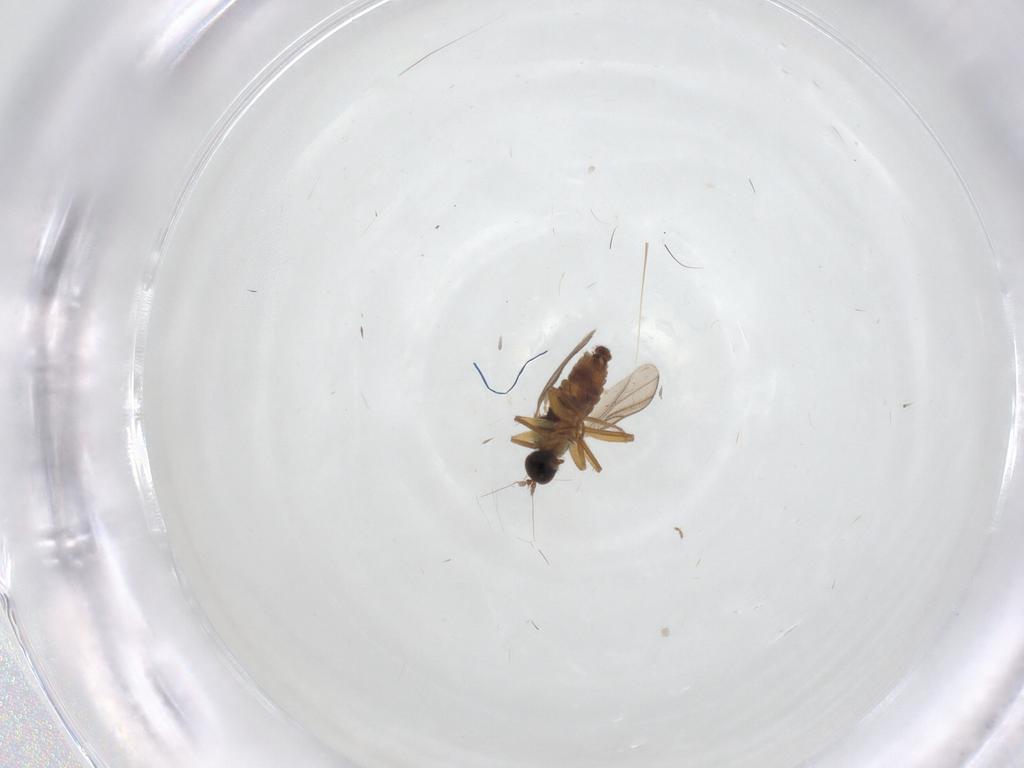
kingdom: Animalia
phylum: Arthropoda
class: Insecta
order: Diptera
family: Hybotidae
